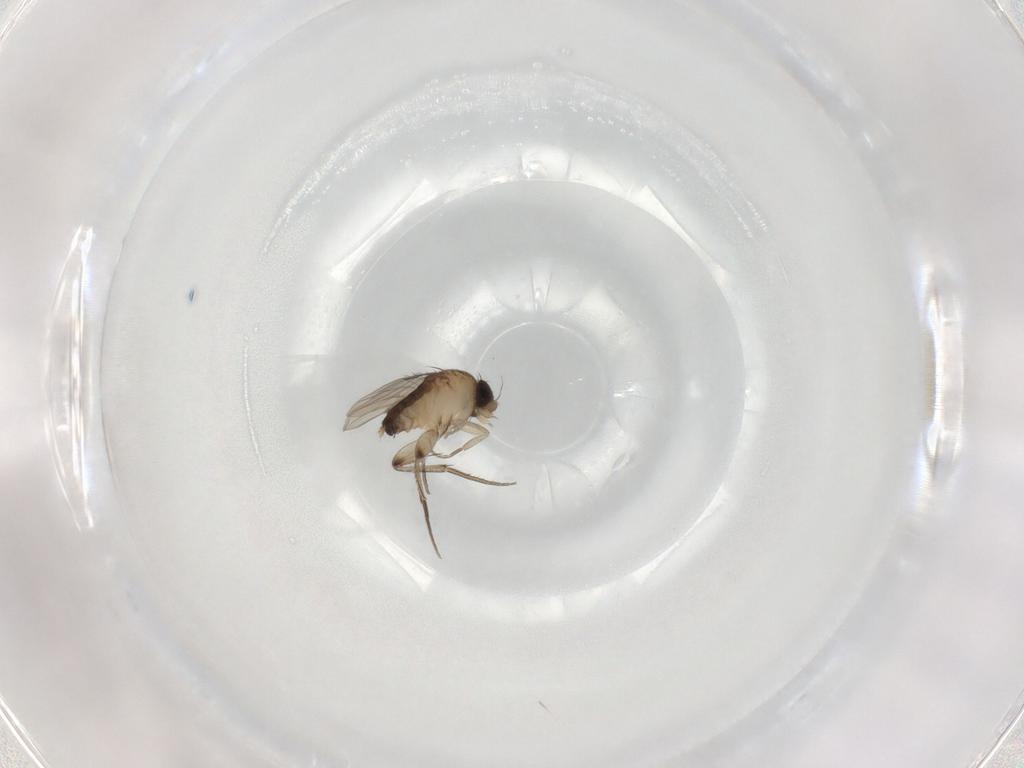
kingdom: Animalia
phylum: Arthropoda
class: Insecta
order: Diptera
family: Phoridae
